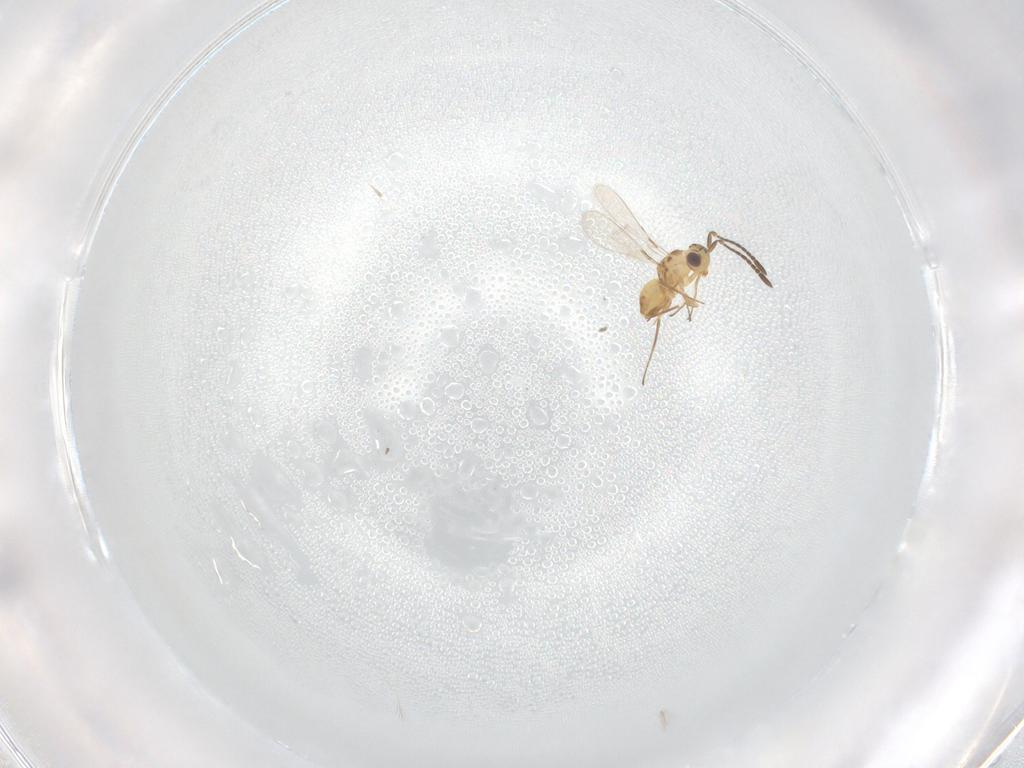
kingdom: Animalia
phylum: Arthropoda
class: Insecta
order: Hymenoptera
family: Vespidae
